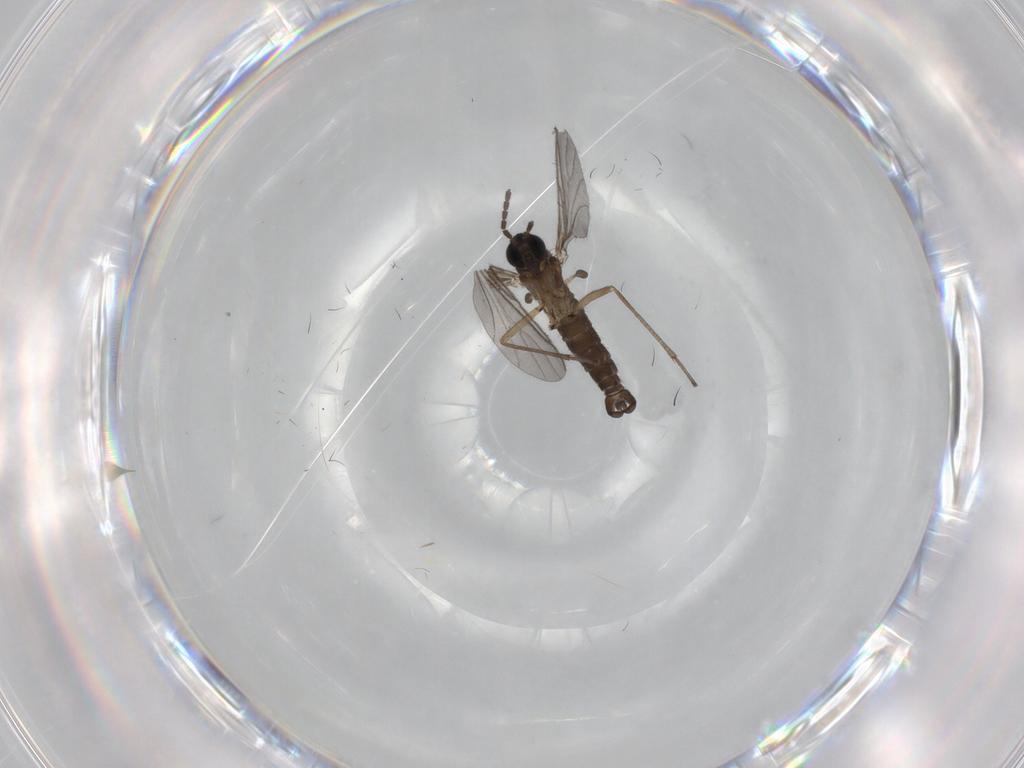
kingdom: Animalia
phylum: Arthropoda
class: Insecta
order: Diptera
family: Sciaridae
